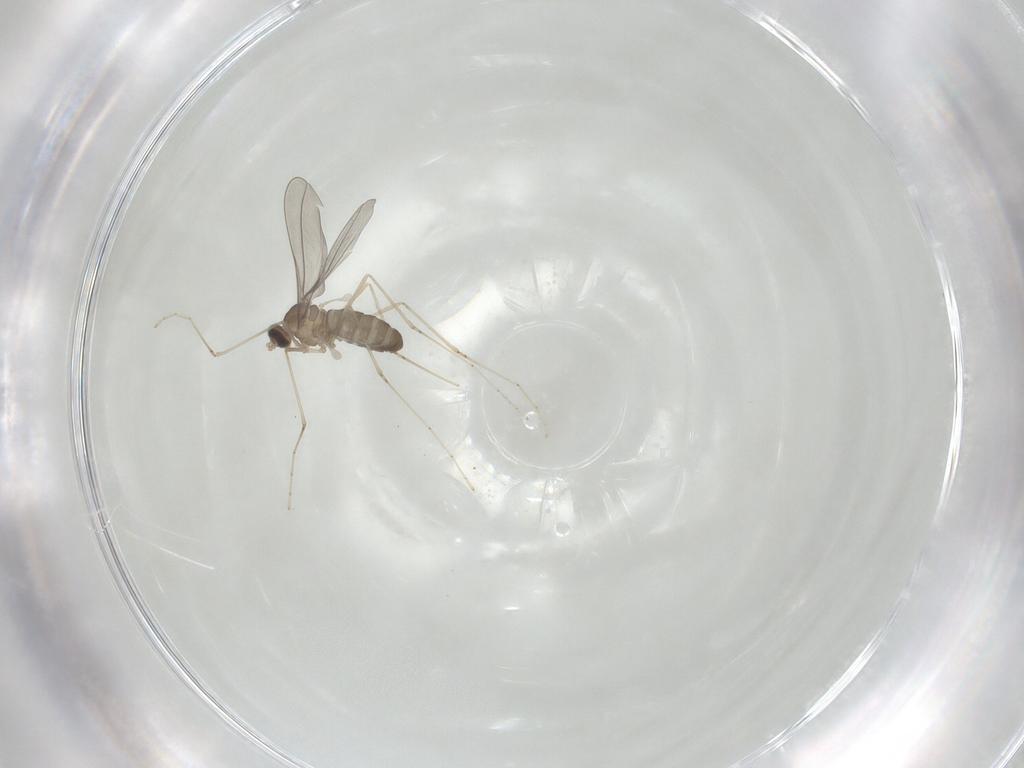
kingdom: Animalia
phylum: Arthropoda
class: Insecta
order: Diptera
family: Cecidomyiidae
